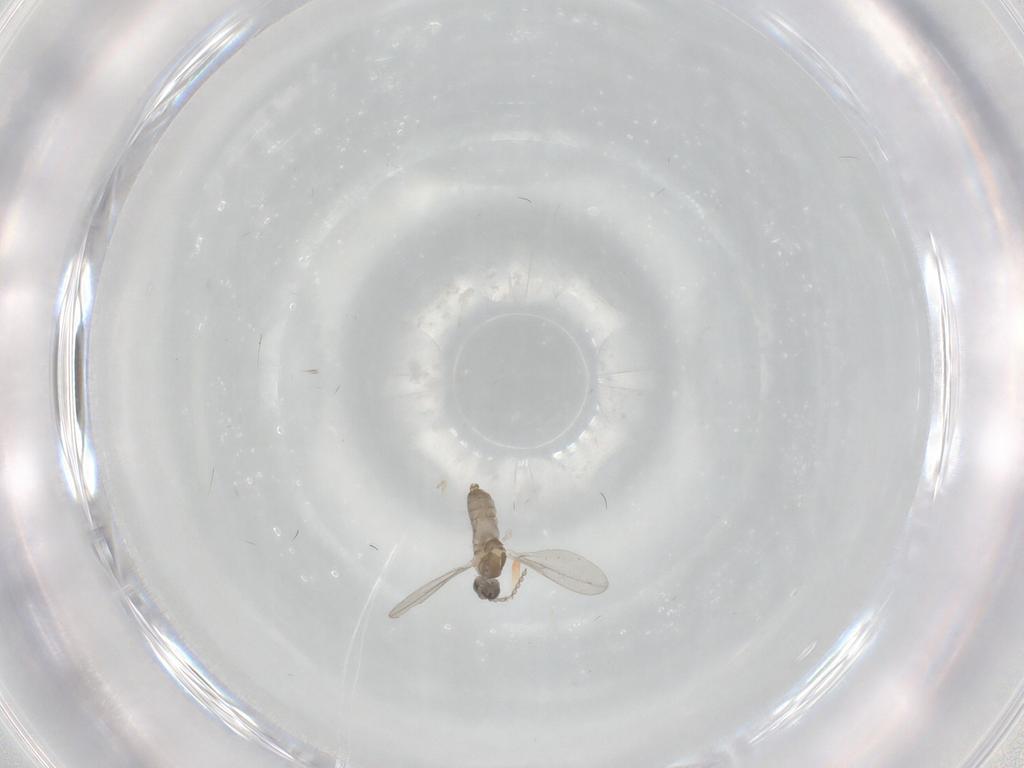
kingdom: Animalia
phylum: Arthropoda
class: Insecta
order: Diptera
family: Cecidomyiidae
